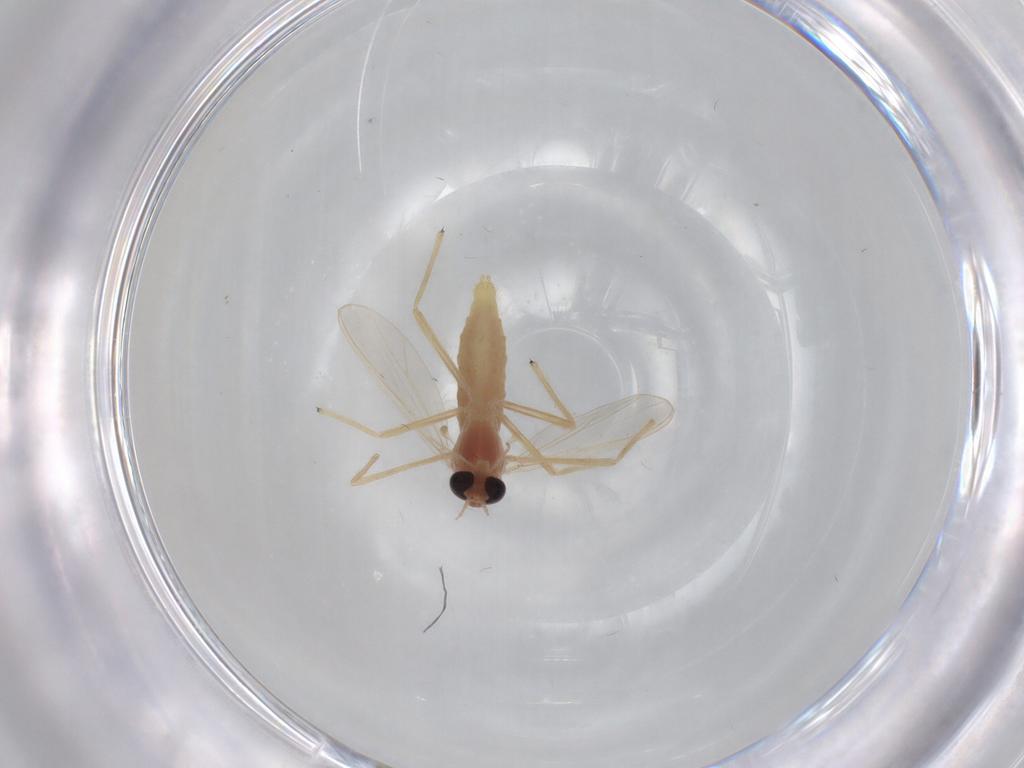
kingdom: Animalia
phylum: Arthropoda
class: Insecta
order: Diptera
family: Chironomidae
